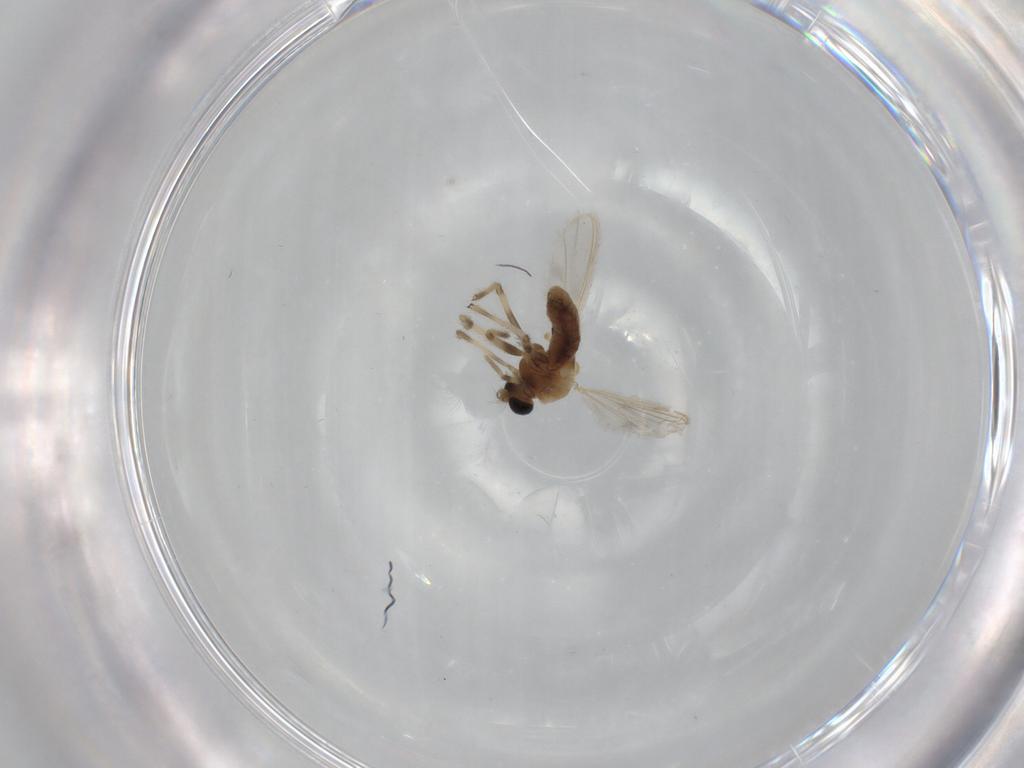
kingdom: Animalia
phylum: Arthropoda
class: Insecta
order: Diptera
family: Chironomidae
